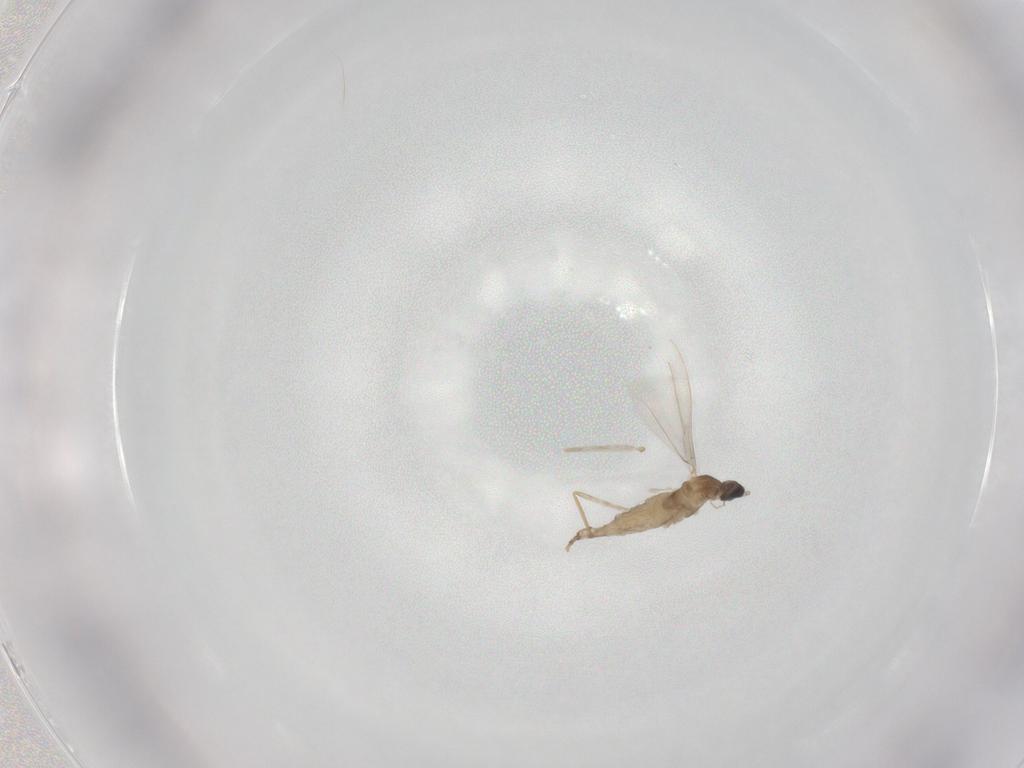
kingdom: Animalia
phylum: Arthropoda
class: Insecta
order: Diptera
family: Cecidomyiidae
